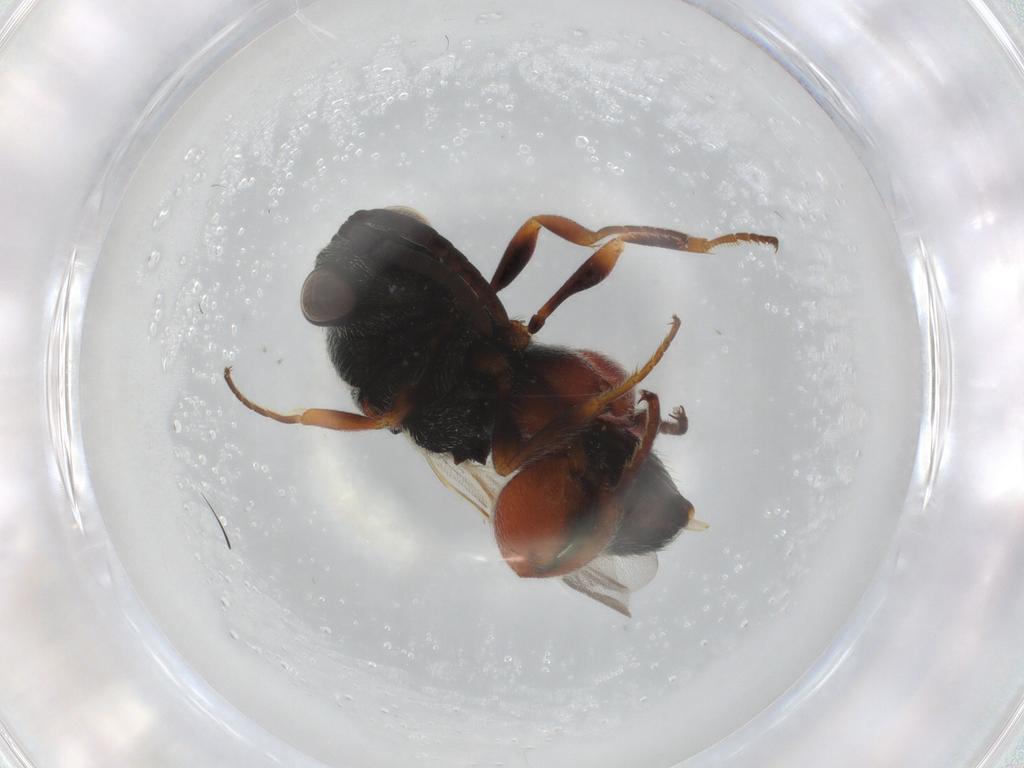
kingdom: Animalia
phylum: Arthropoda
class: Insecta
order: Hymenoptera
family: Chalcididae
